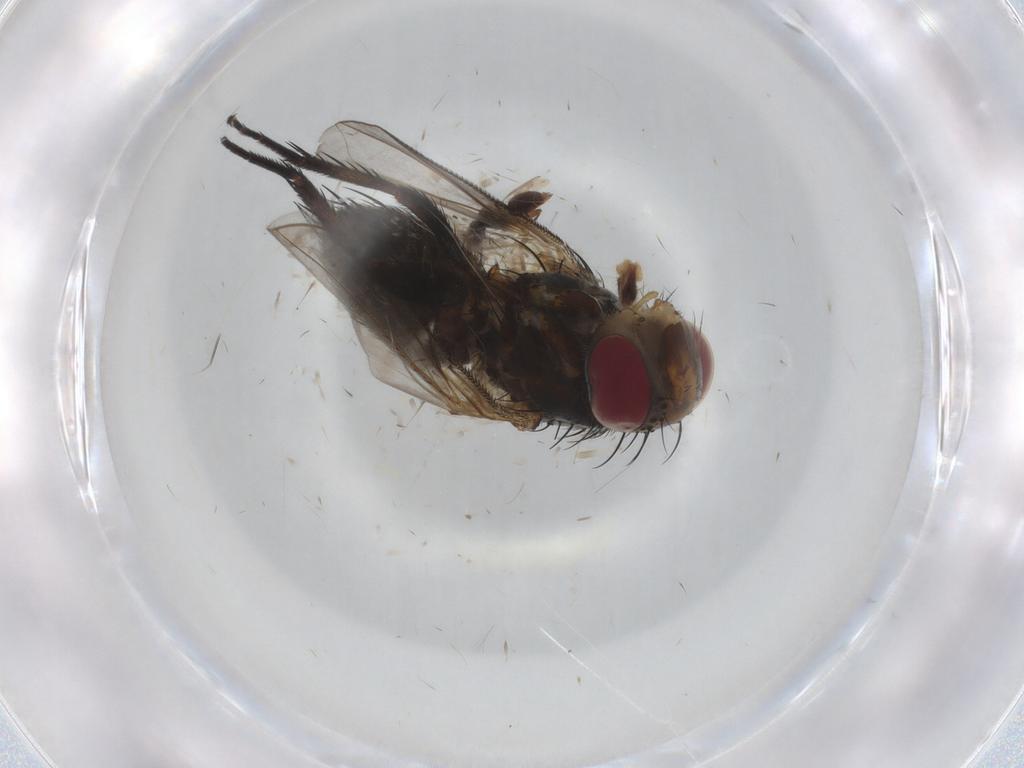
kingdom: Animalia
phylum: Arthropoda
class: Insecta
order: Diptera
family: Chironomidae
